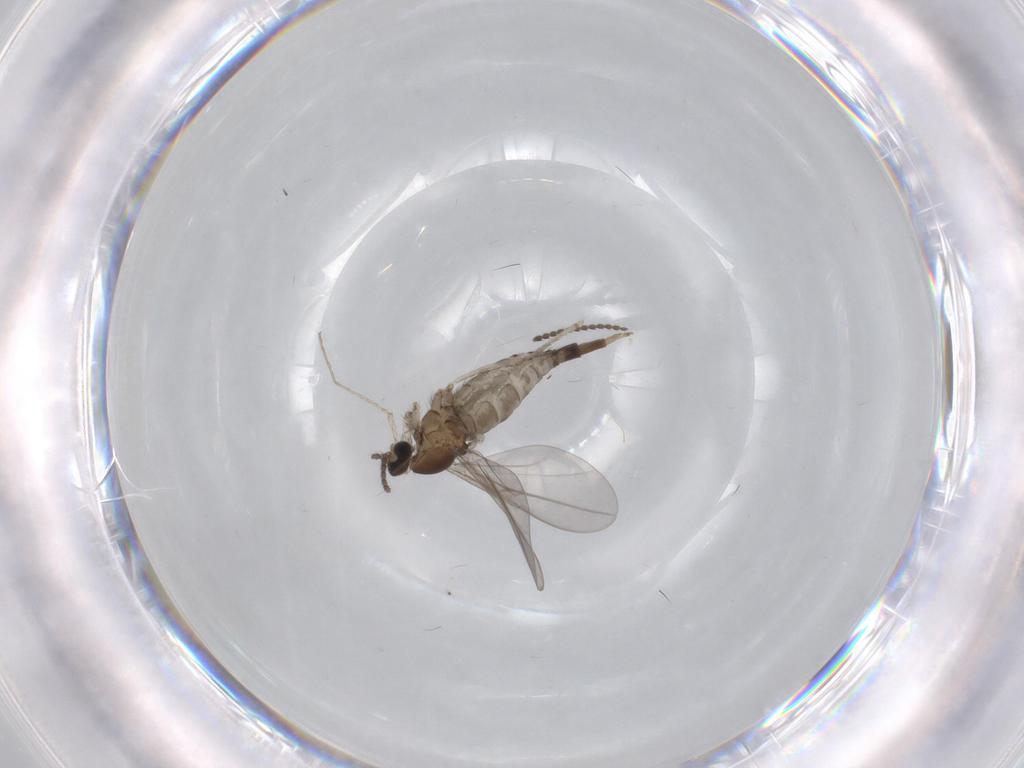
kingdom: Animalia
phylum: Arthropoda
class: Insecta
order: Diptera
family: Cecidomyiidae
